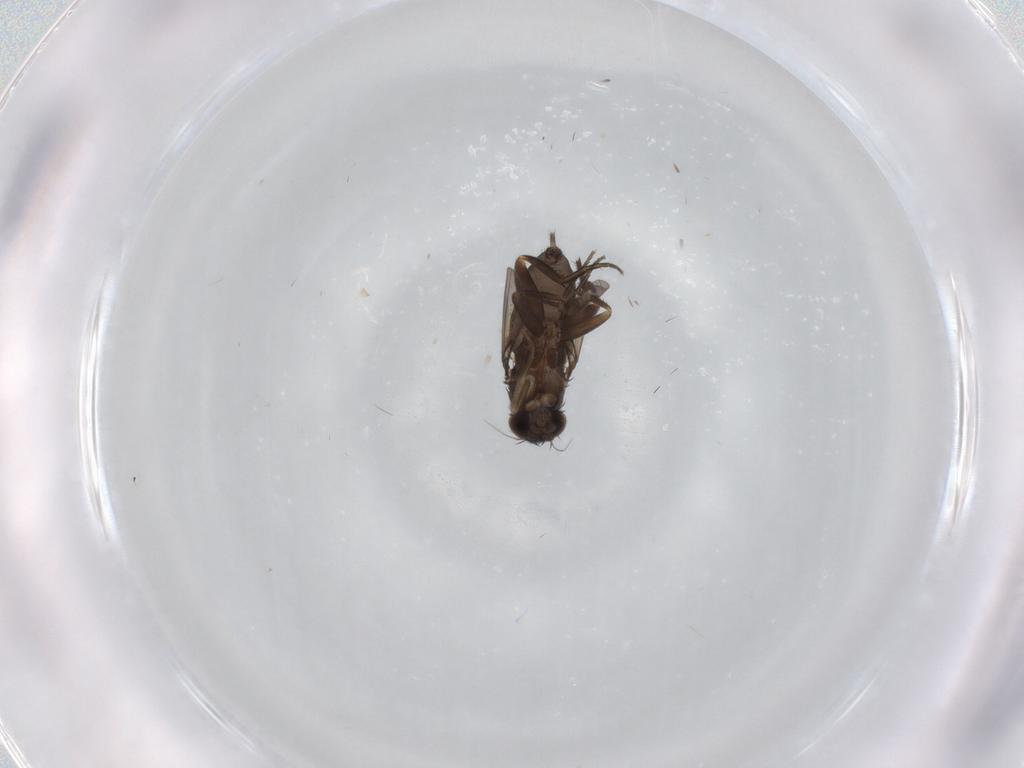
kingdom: Animalia
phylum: Arthropoda
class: Insecta
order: Diptera
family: Phoridae
